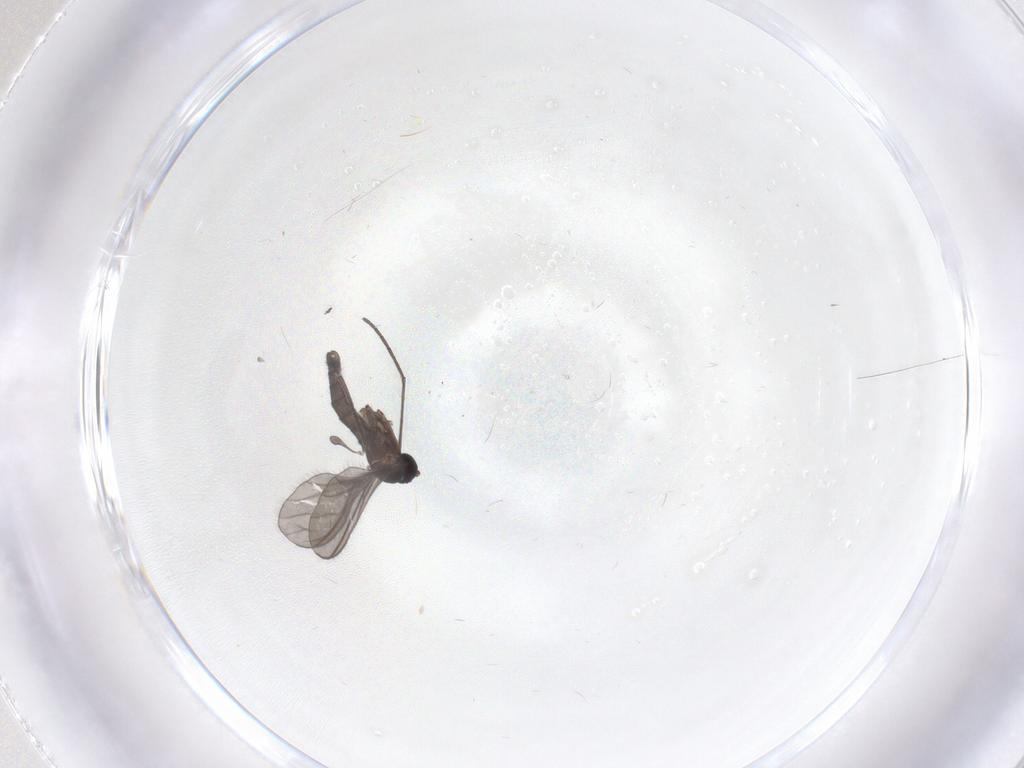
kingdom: Animalia
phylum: Arthropoda
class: Insecta
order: Diptera
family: Sciaridae
